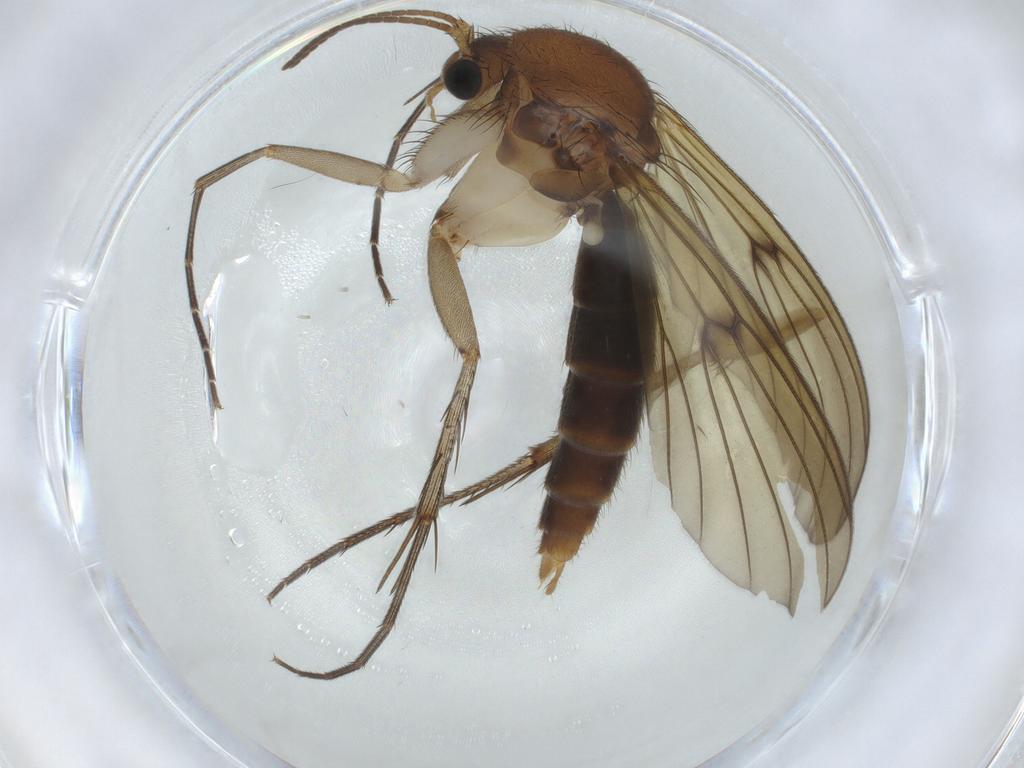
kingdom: Animalia
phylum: Arthropoda
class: Insecta
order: Diptera
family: Mycetophilidae
